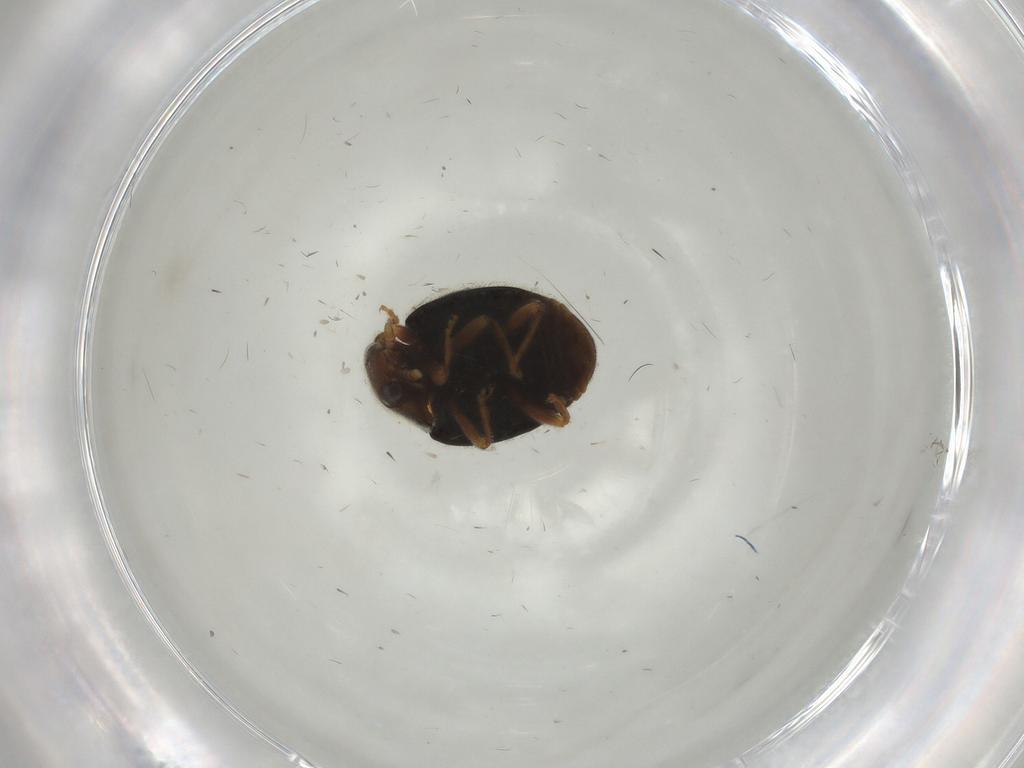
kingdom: Animalia
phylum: Arthropoda
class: Insecta
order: Coleoptera
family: Coccinellidae
